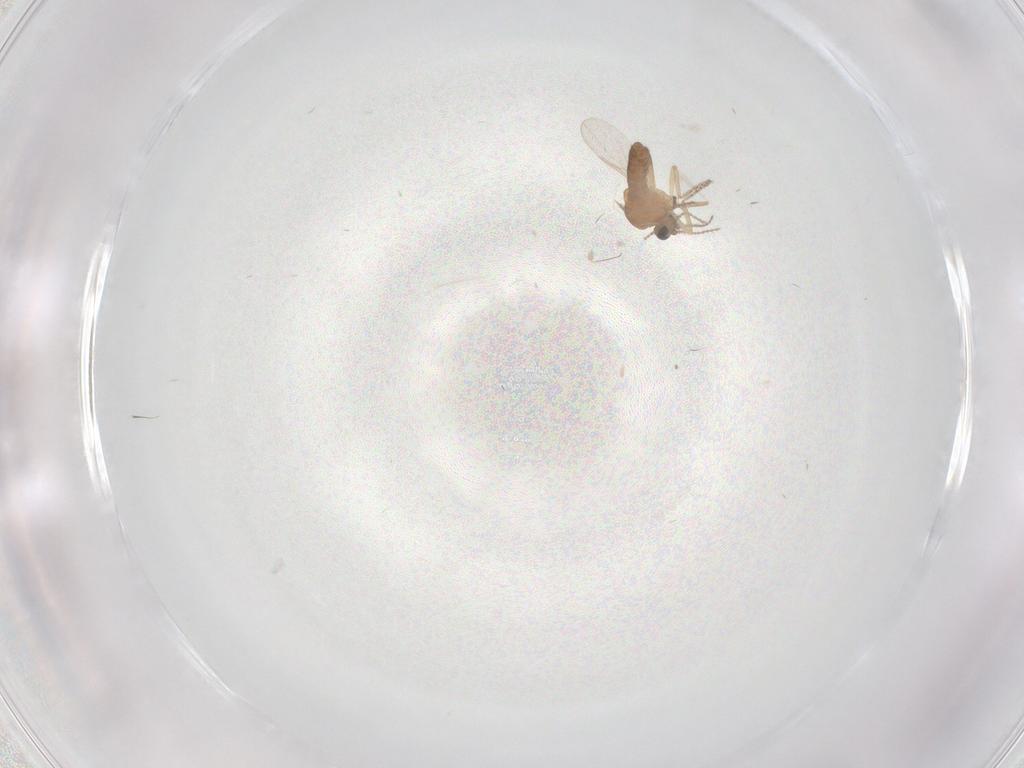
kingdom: Animalia
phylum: Arthropoda
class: Insecta
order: Diptera
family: Ceratopogonidae
